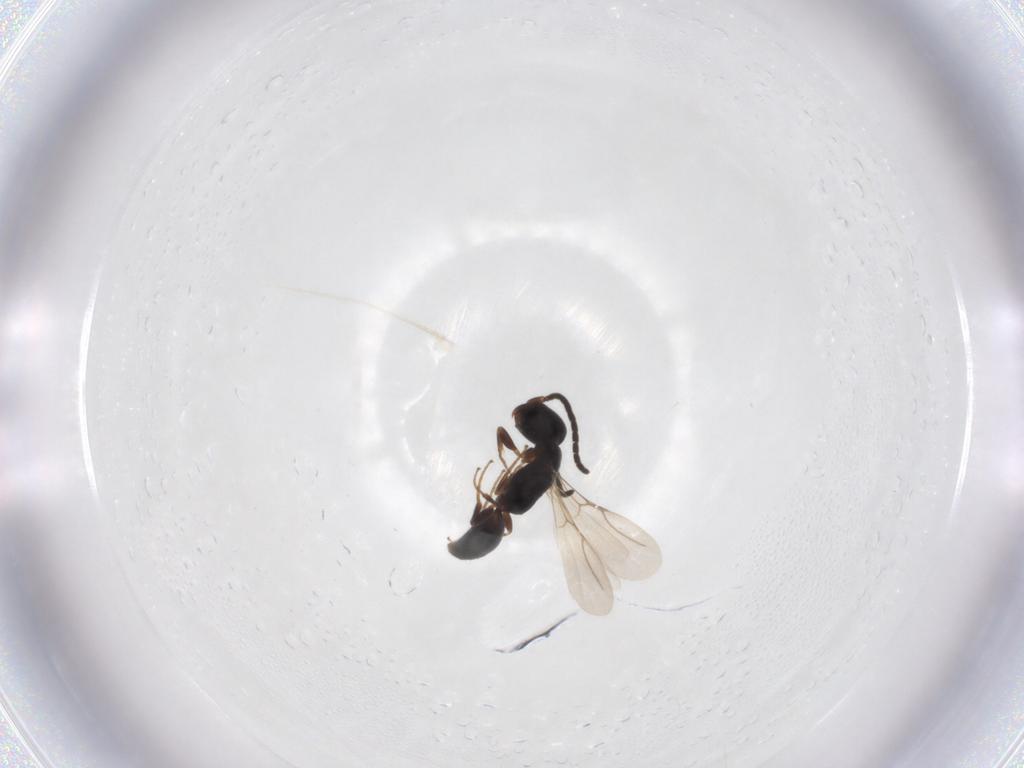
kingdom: Animalia
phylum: Arthropoda
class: Insecta
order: Hymenoptera
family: Bethylidae
